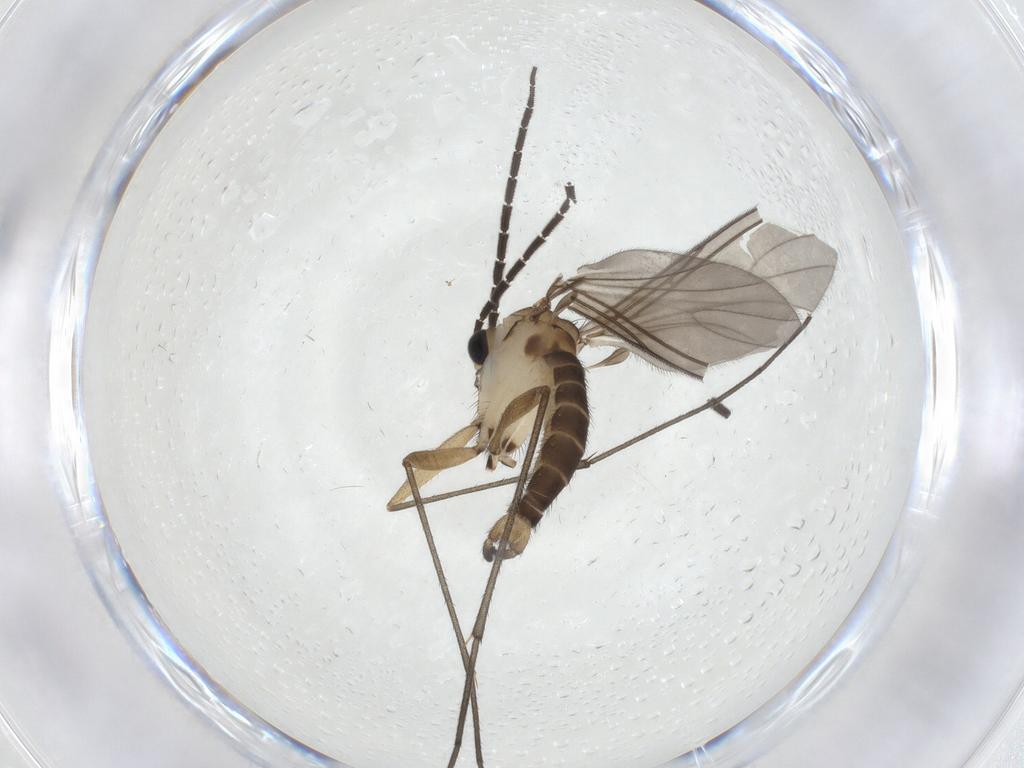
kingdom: Animalia
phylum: Arthropoda
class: Insecta
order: Diptera
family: Sciaridae
